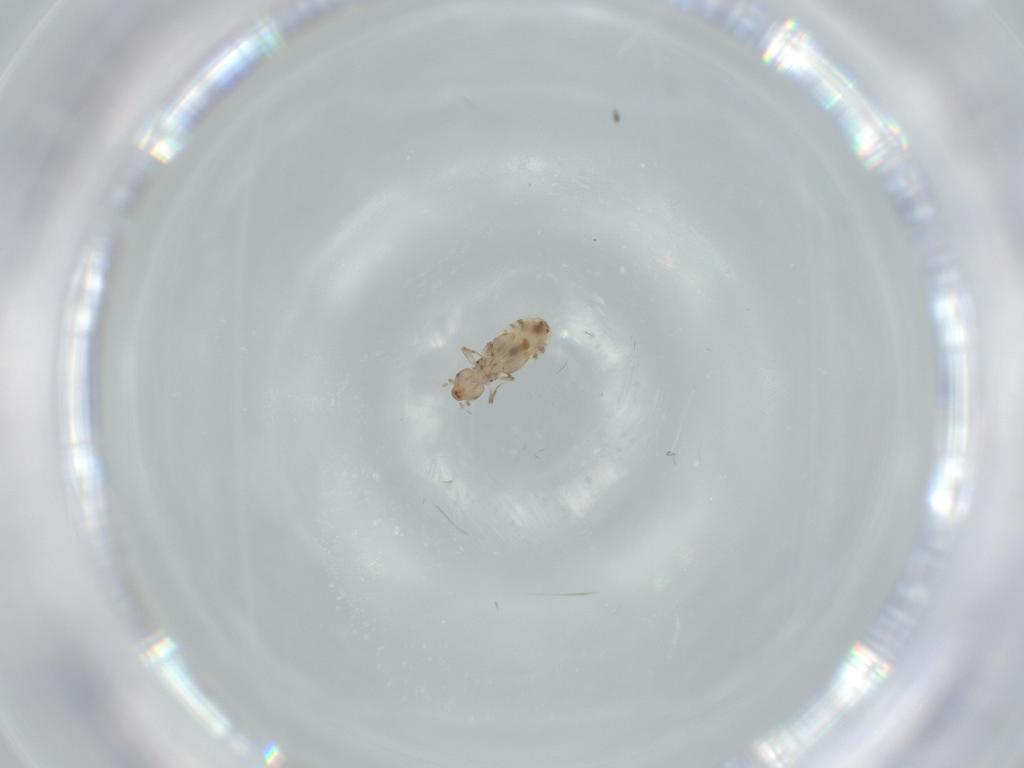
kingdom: Animalia
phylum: Arthropoda
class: Insecta
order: Psocodea
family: Liposcelididae
